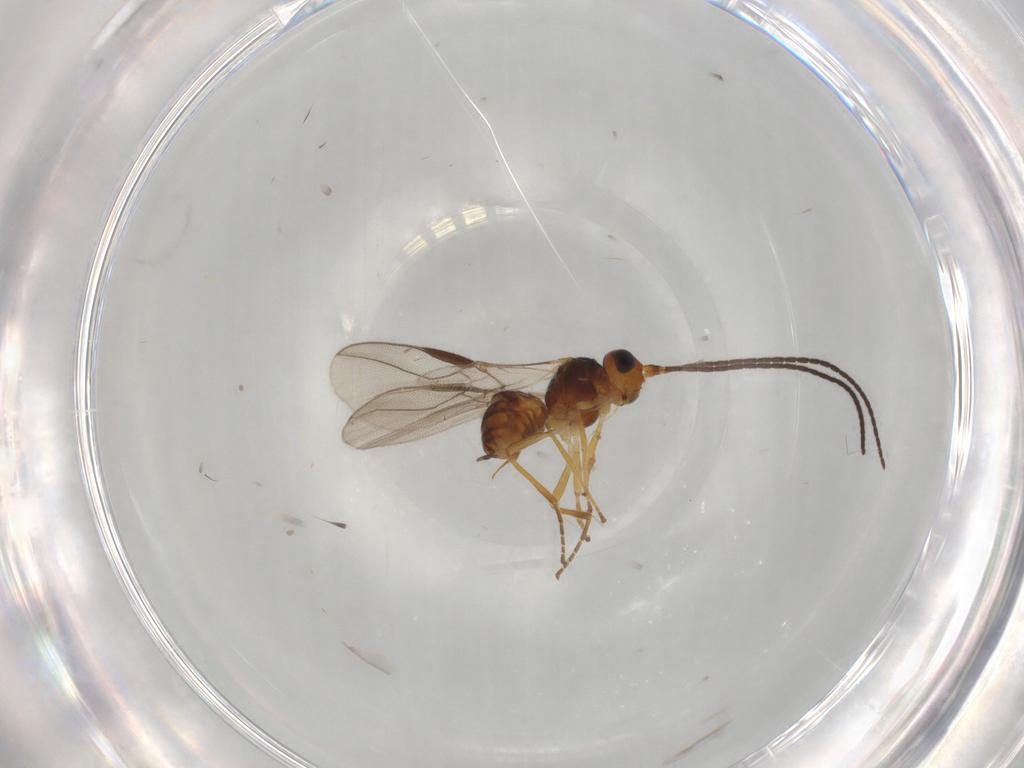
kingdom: Animalia
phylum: Arthropoda
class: Insecta
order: Hymenoptera
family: Braconidae
